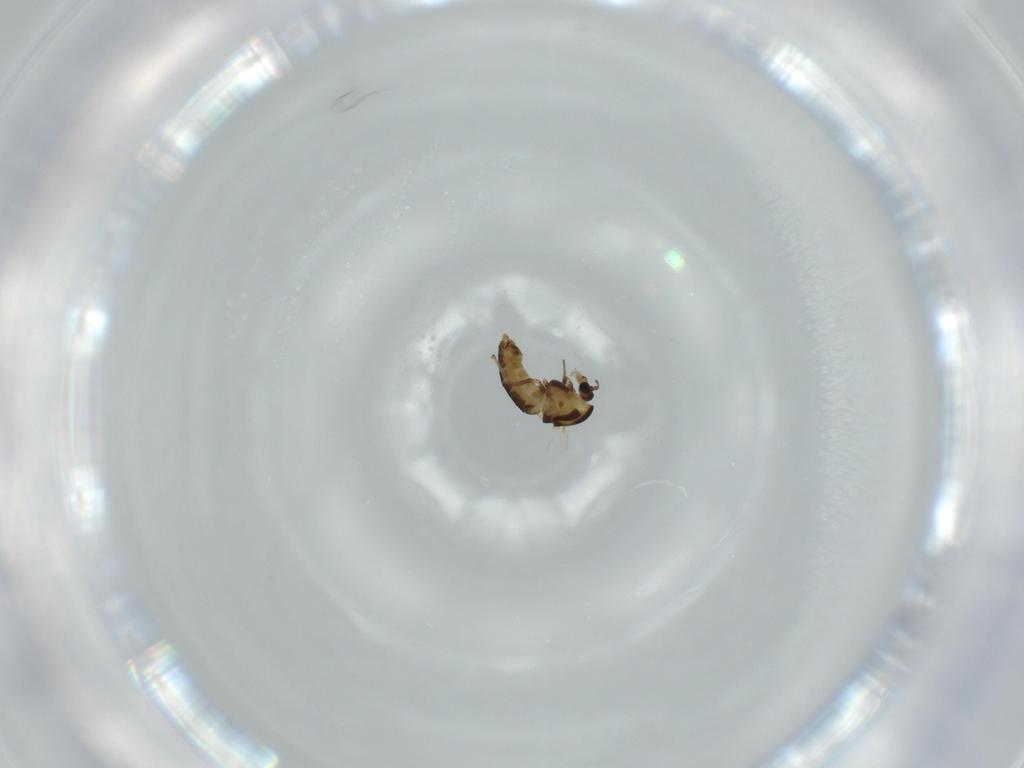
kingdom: Animalia
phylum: Arthropoda
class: Insecta
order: Diptera
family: Chironomidae
